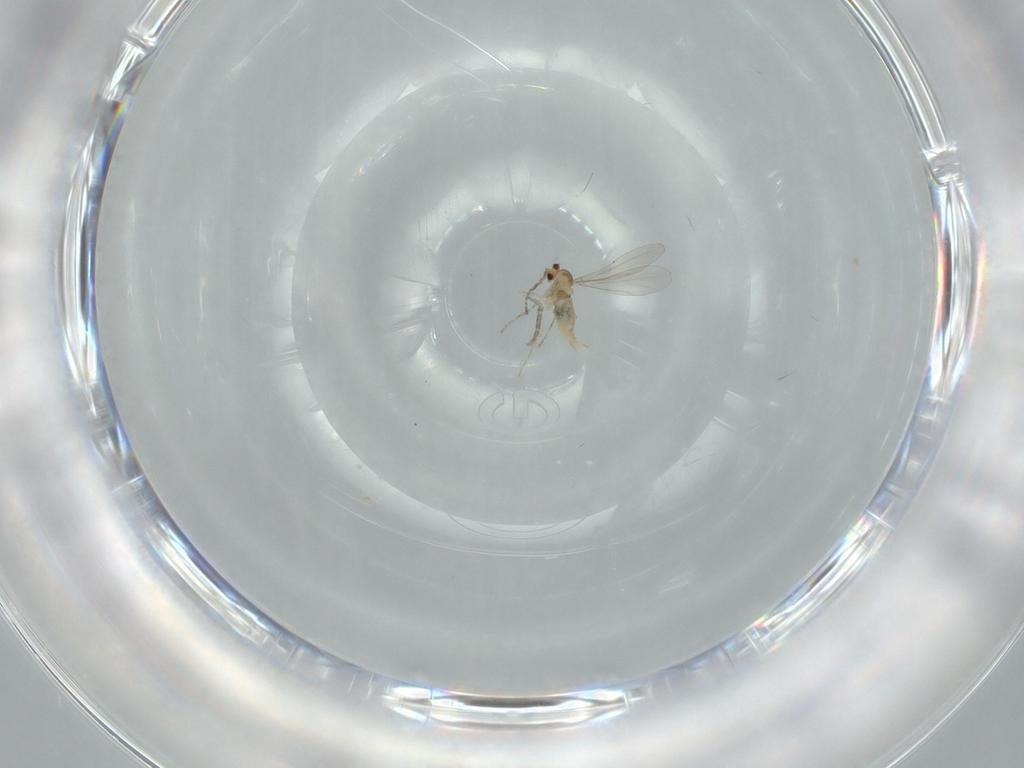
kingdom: Animalia
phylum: Arthropoda
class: Insecta
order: Diptera
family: Cecidomyiidae
